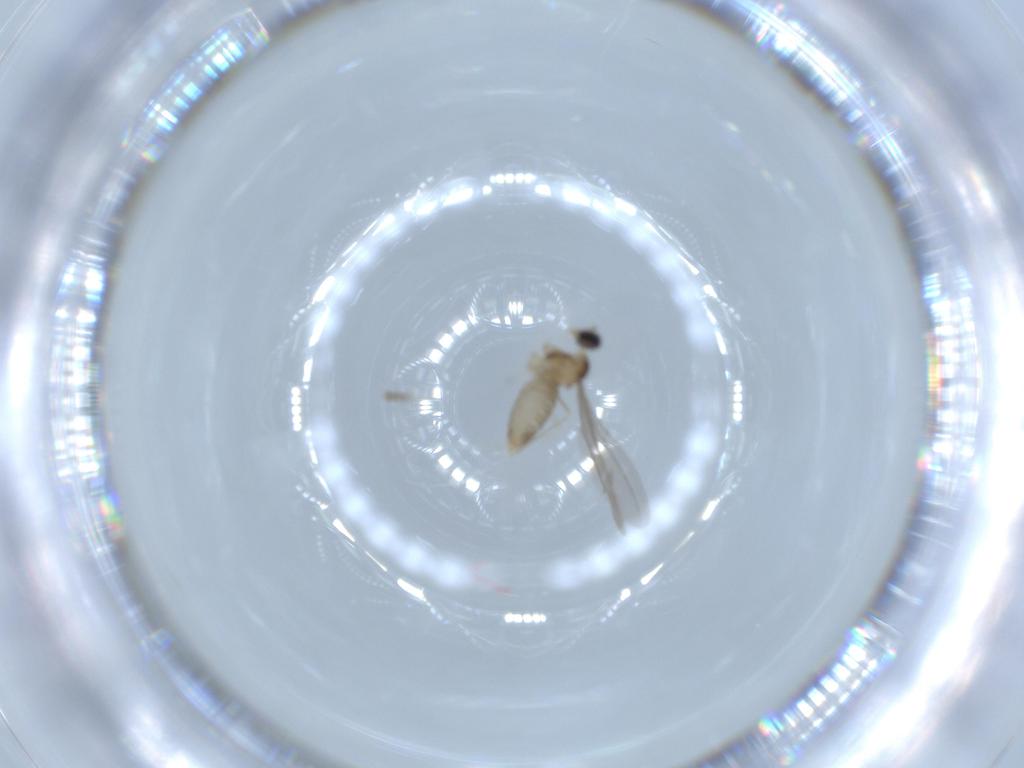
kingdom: Animalia
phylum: Arthropoda
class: Insecta
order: Diptera
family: Cecidomyiidae
